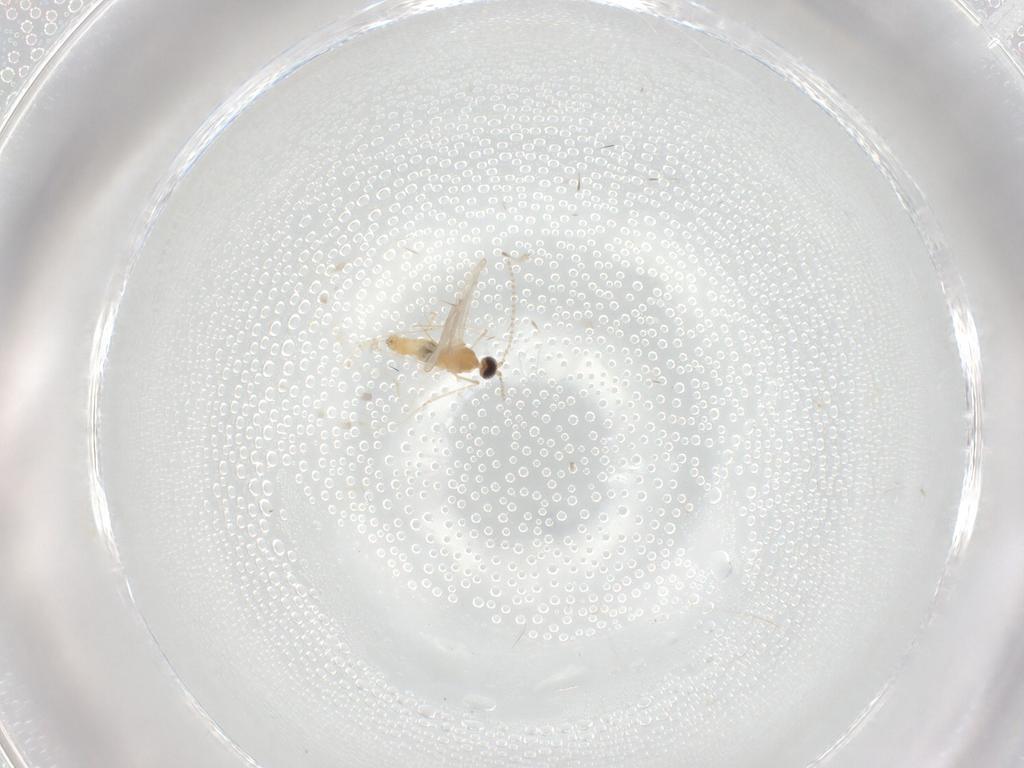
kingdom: Animalia
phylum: Arthropoda
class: Insecta
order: Diptera
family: Cecidomyiidae
